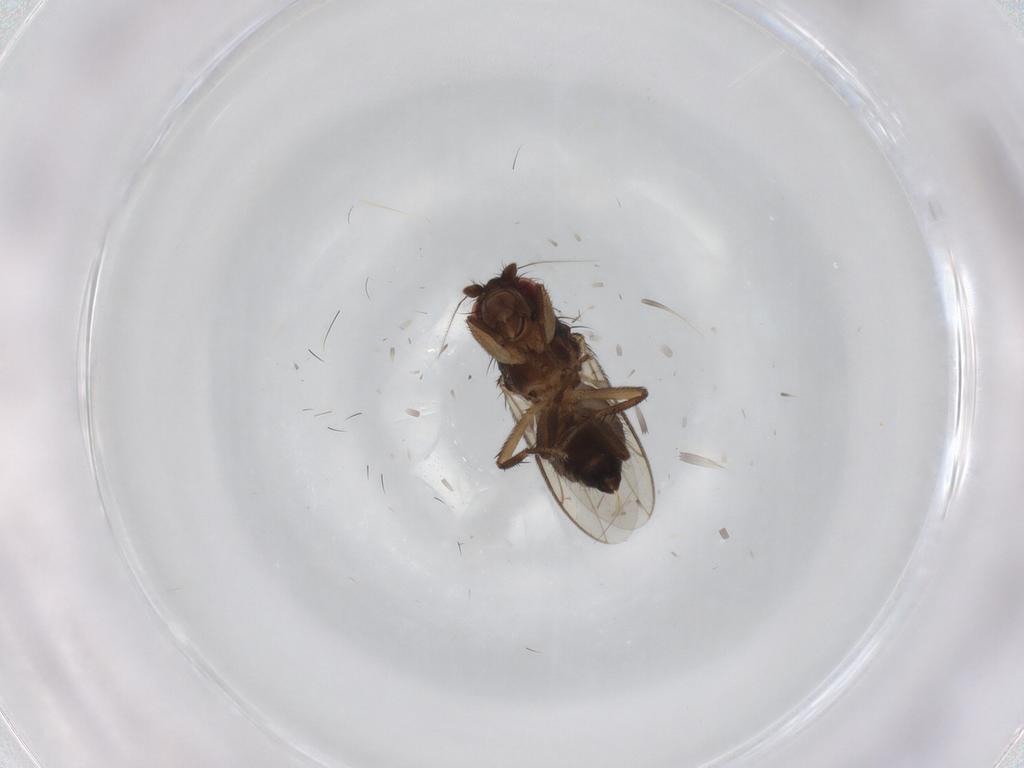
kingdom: Animalia
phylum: Arthropoda
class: Insecta
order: Diptera
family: Sphaeroceridae
